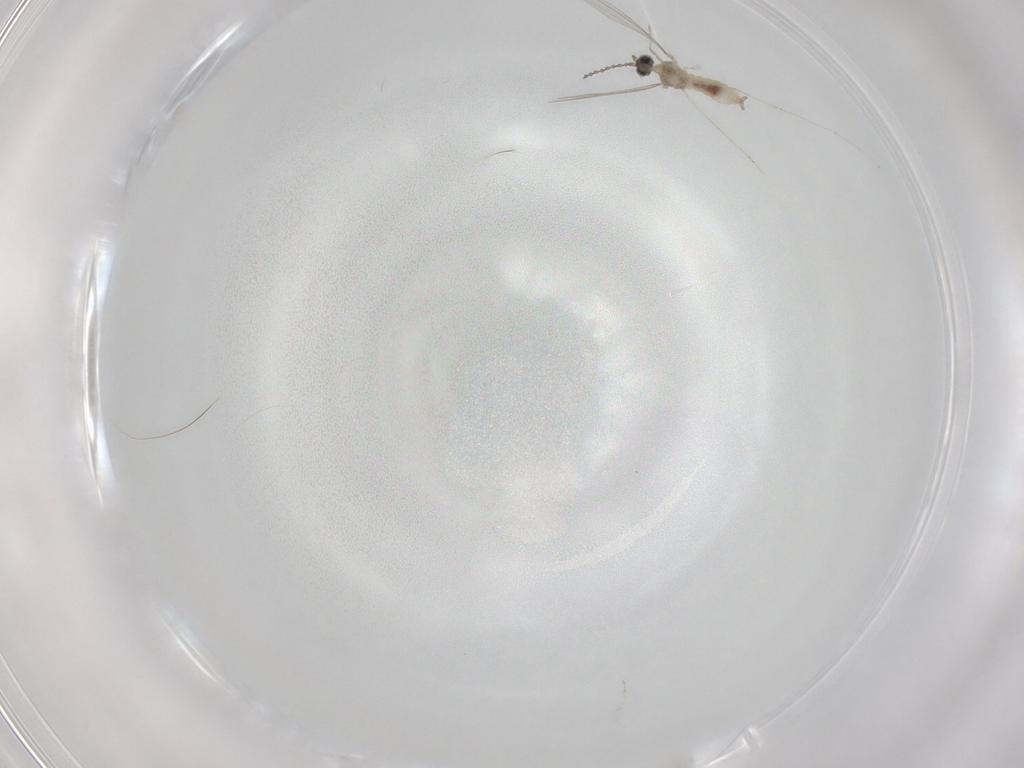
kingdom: Animalia
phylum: Arthropoda
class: Insecta
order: Diptera
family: Cecidomyiidae
